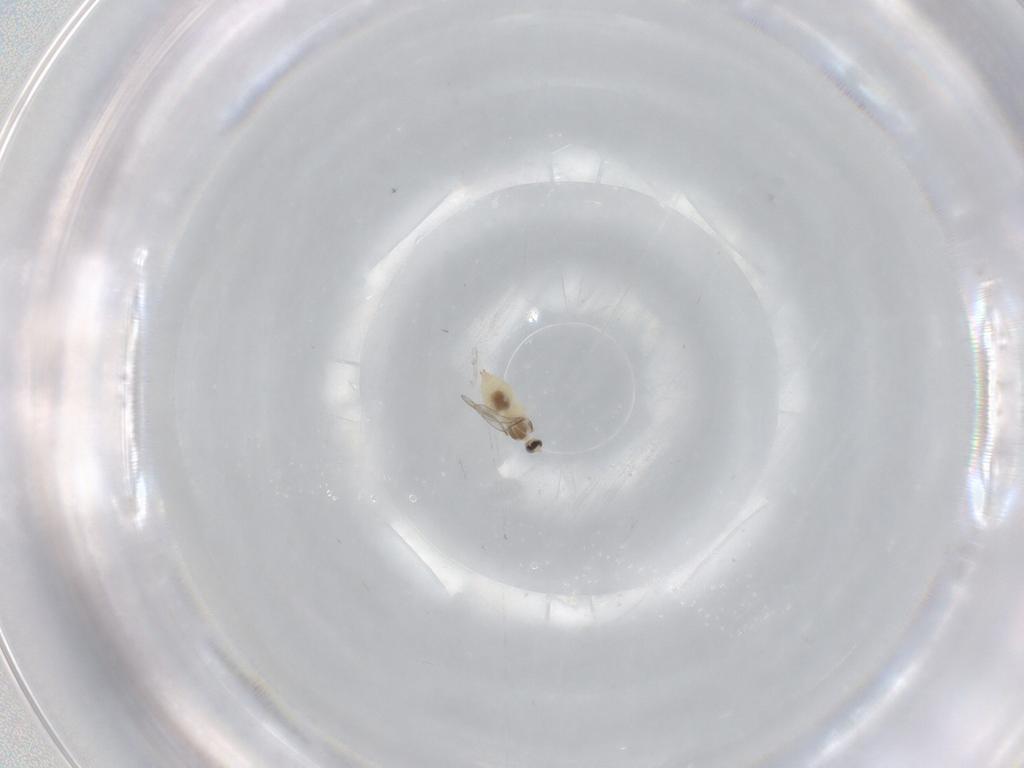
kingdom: Animalia
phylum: Arthropoda
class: Insecta
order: Diptera
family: Cecidomyiidae
